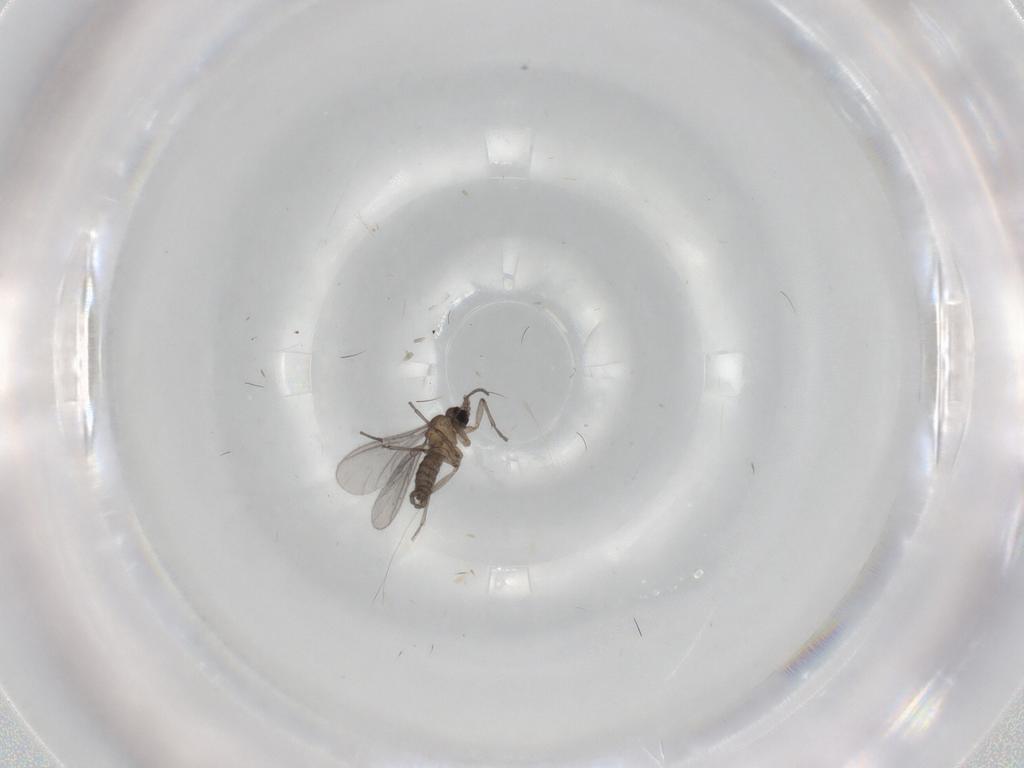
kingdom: Animalia
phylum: Arthropoda
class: Insecta
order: Diptera
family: Sciaridae
